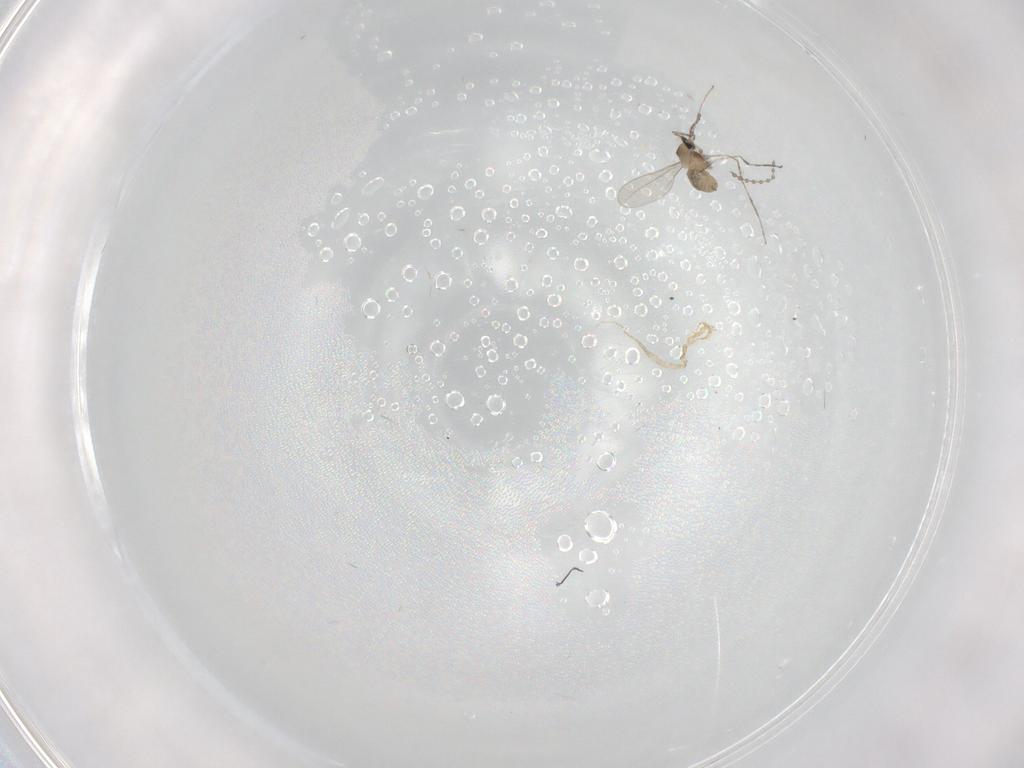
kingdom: Animalia
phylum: Arthropoda
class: Insecta
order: Diptera
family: Cecidomyiidae
